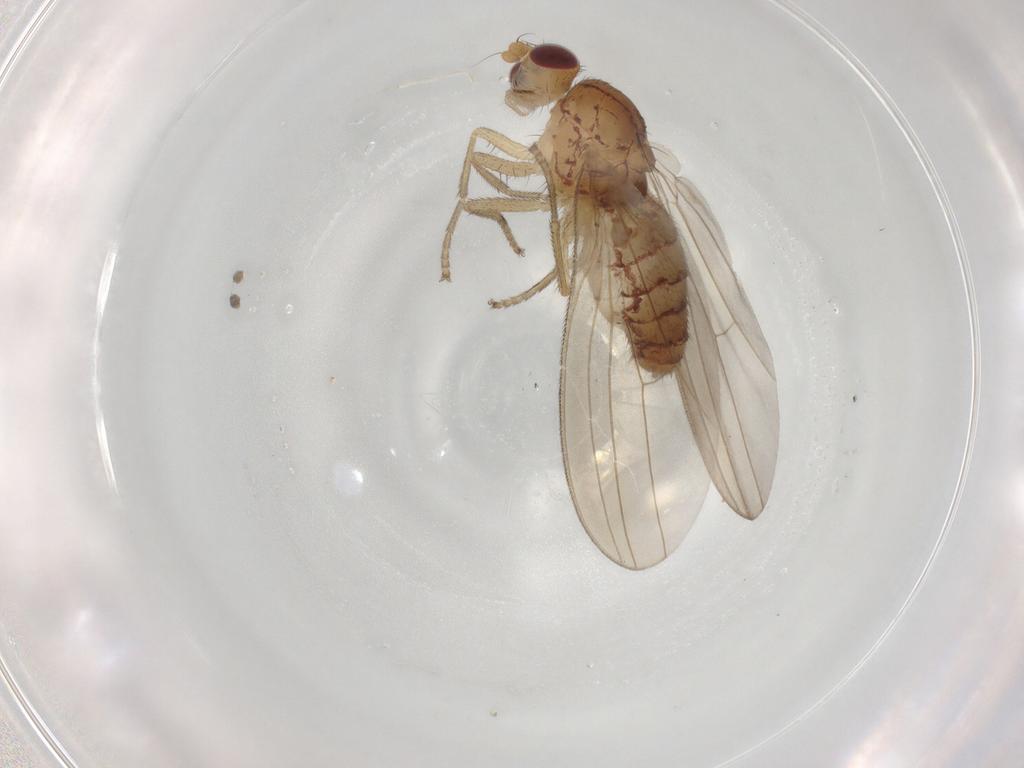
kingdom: Animalia
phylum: Arthropoda
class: Insecta
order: Diptera
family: Natalimyzidae
